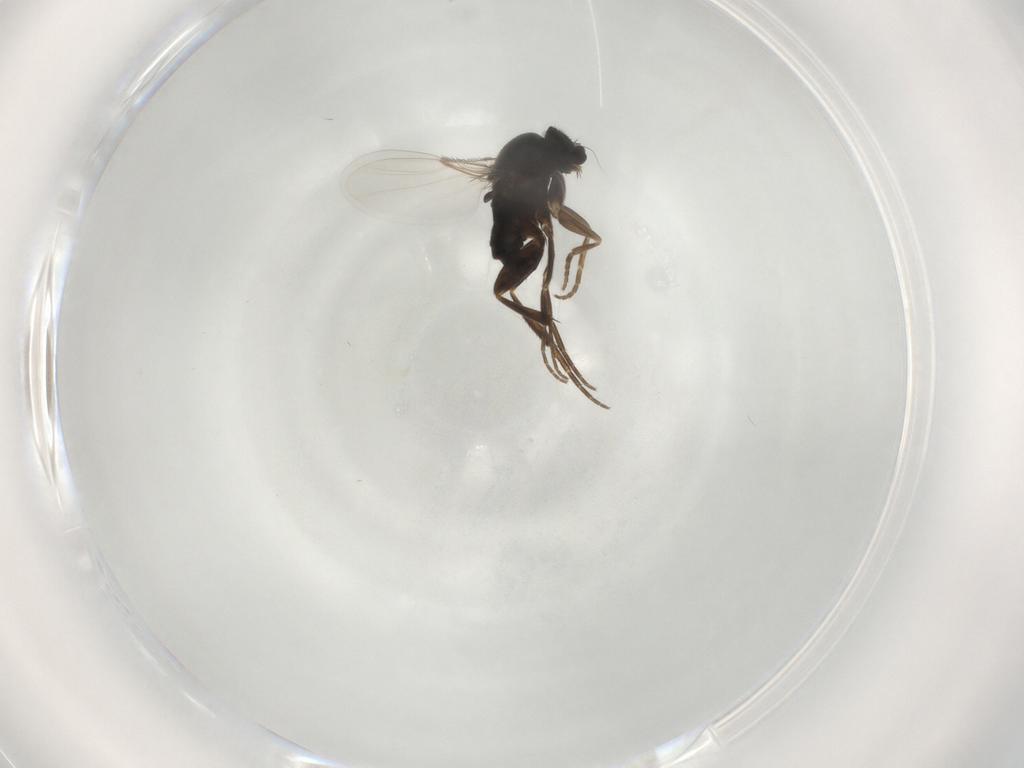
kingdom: Animalia
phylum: Arthropoda
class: Insecta
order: Diptera
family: Phoridae
